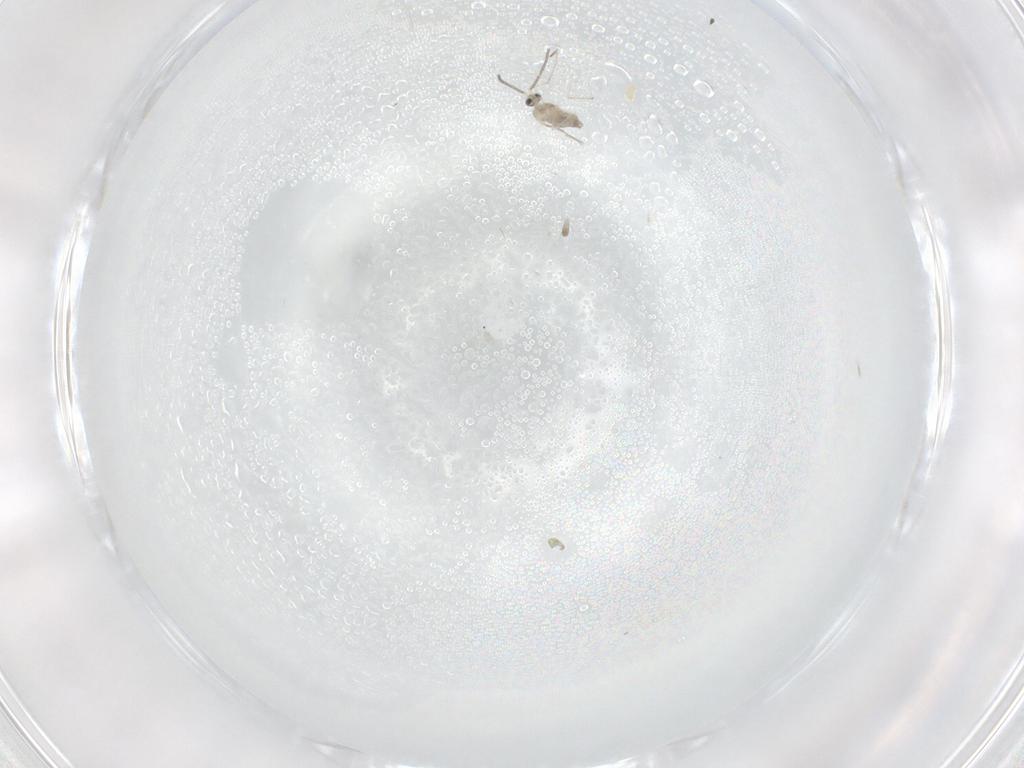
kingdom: Animalia
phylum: Arthropoda
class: Insecta
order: Diptera
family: Cecidomyiidae
